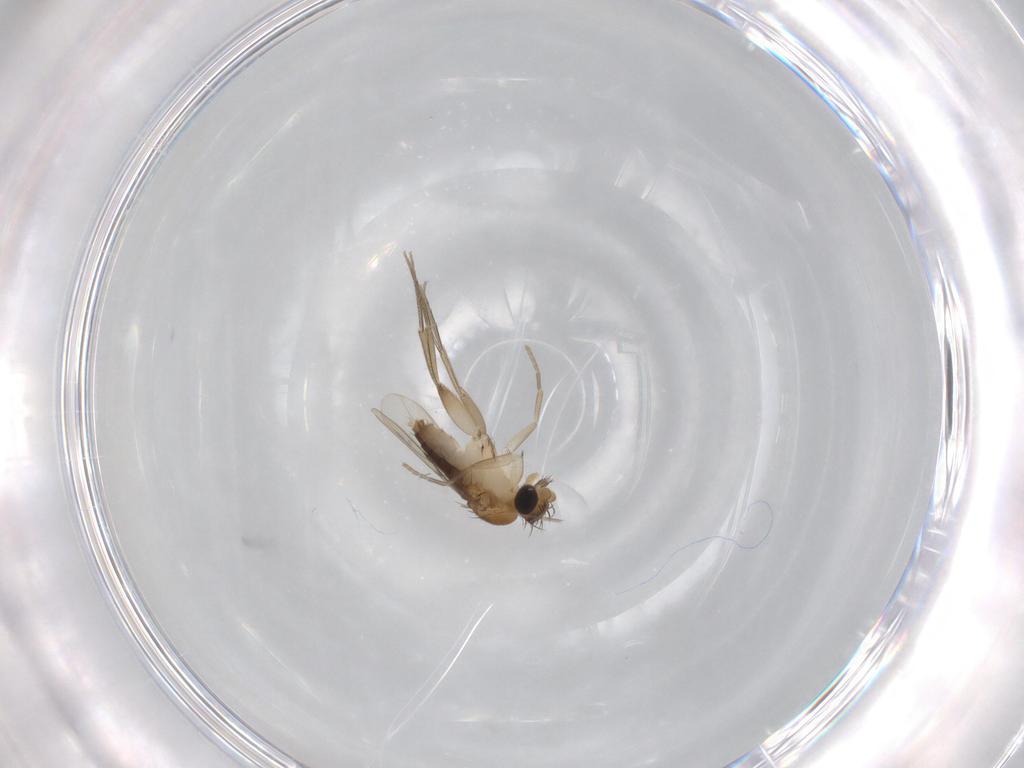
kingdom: Animalia
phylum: Arthropoda
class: Insecta
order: Diptera
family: Phoridae
